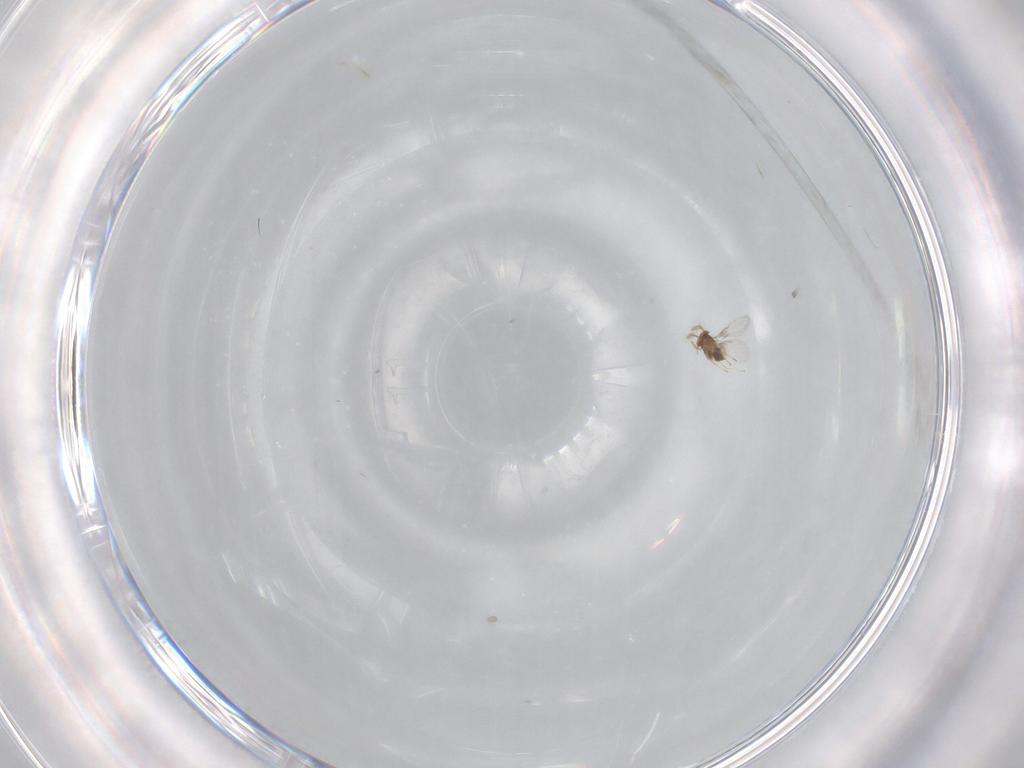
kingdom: Animalia
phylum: Arthropoda
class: Insecta
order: Hymenoptera
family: Trichogrammatidae
